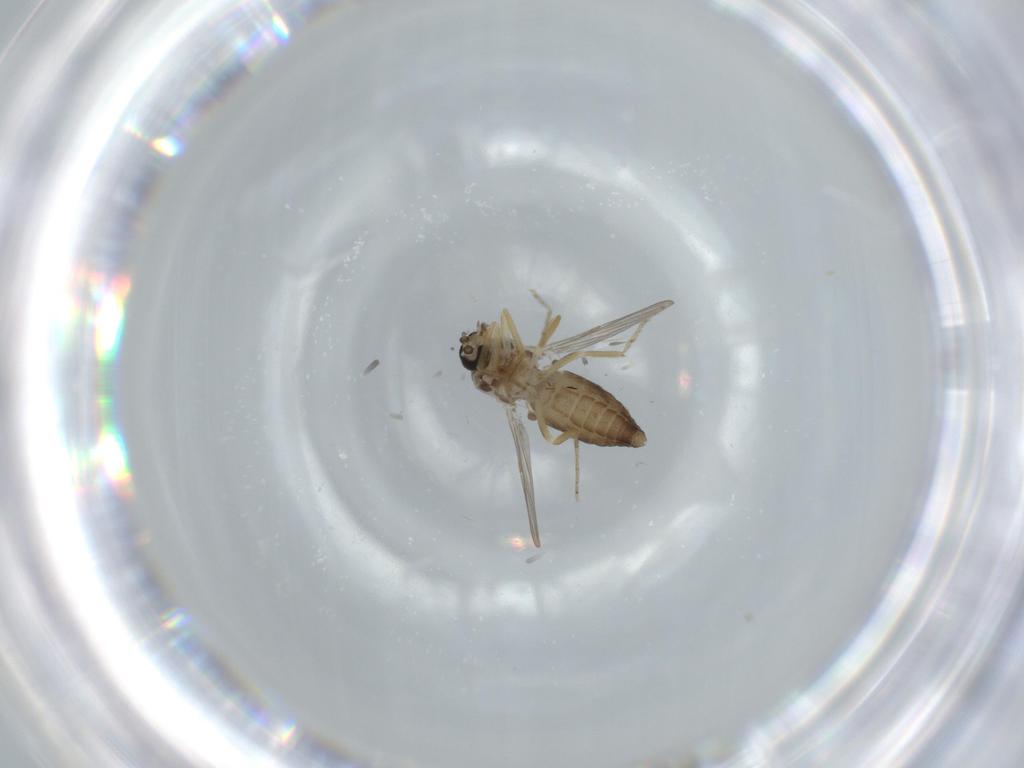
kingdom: Animalia
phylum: Arthropoda
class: Insecta
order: Diptera
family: Ceratopogonidae
